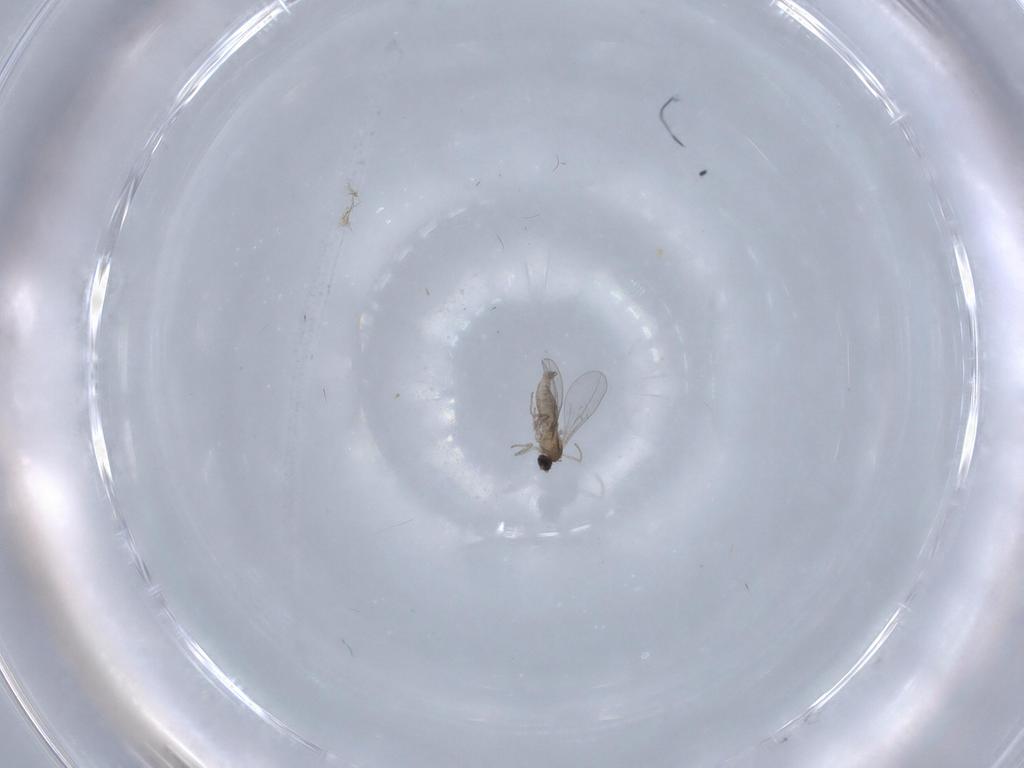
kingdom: Animalia
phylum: Arthropoda
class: Insecta
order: Diptera
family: Cecidomyiidae
